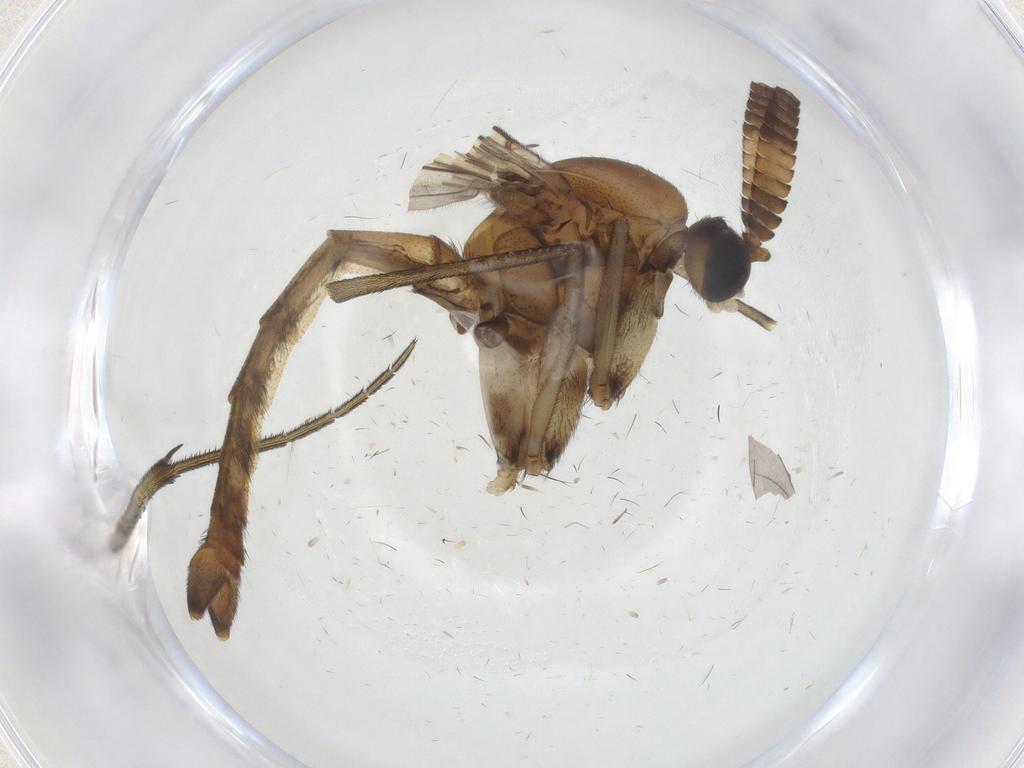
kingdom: Animalia
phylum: Arthropoda
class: Insecta
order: Diptera
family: Hybotidae
